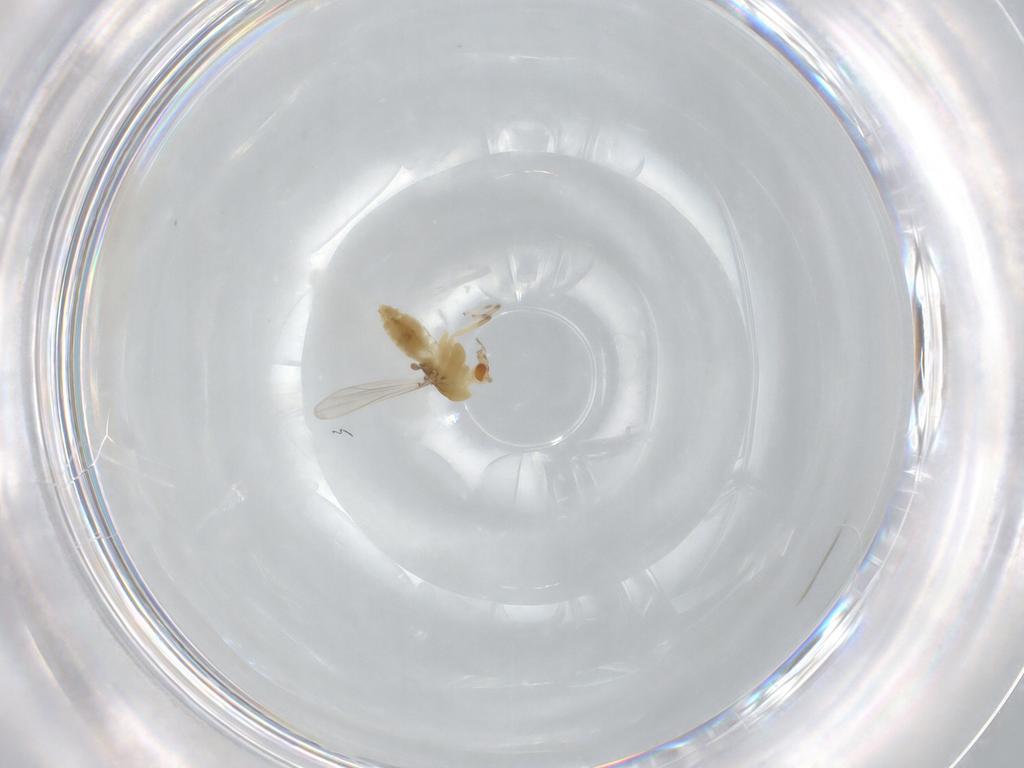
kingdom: Animalia
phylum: Arthropoda
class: Insecta
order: Diptera
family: Chironomidae
